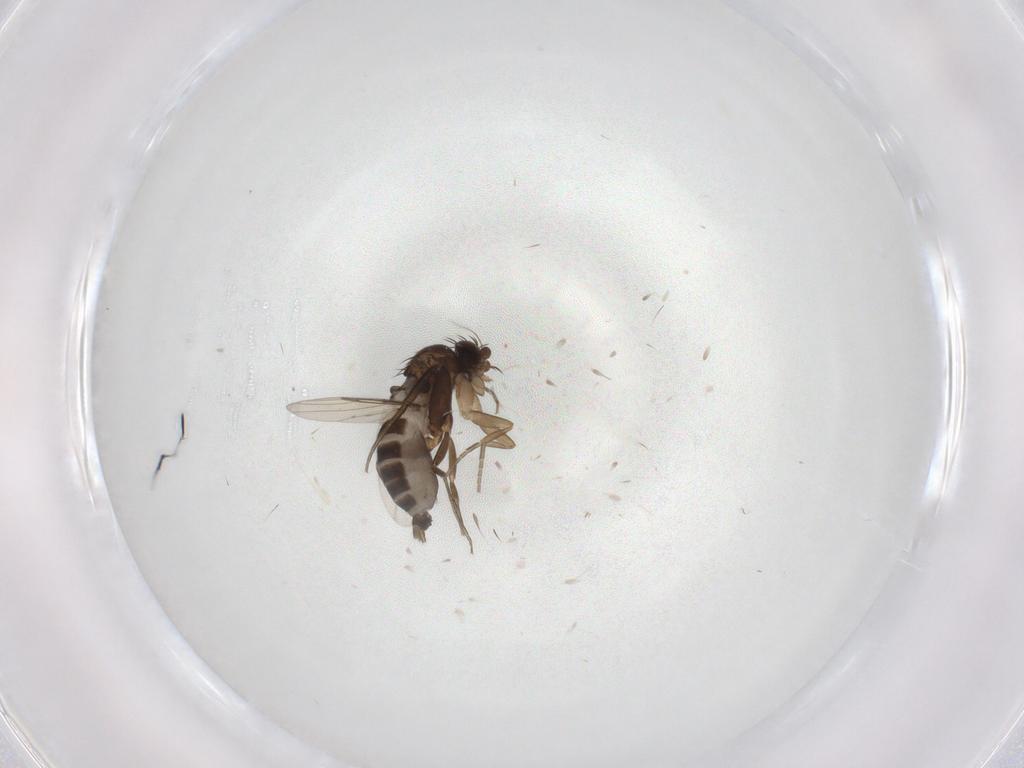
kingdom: Animalia
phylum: Arthropoda
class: Insecta
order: Diptera
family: Phoridae
